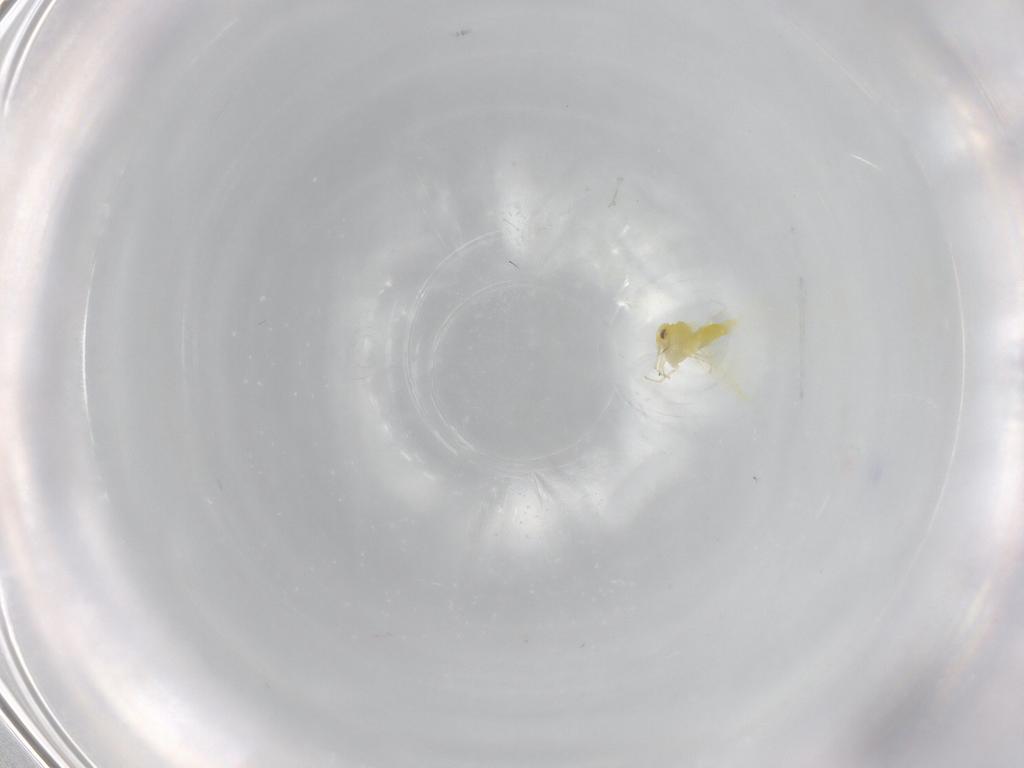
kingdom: Animalia
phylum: Arthropoda
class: Insecta
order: Hemiptera
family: Aleyrodidae
